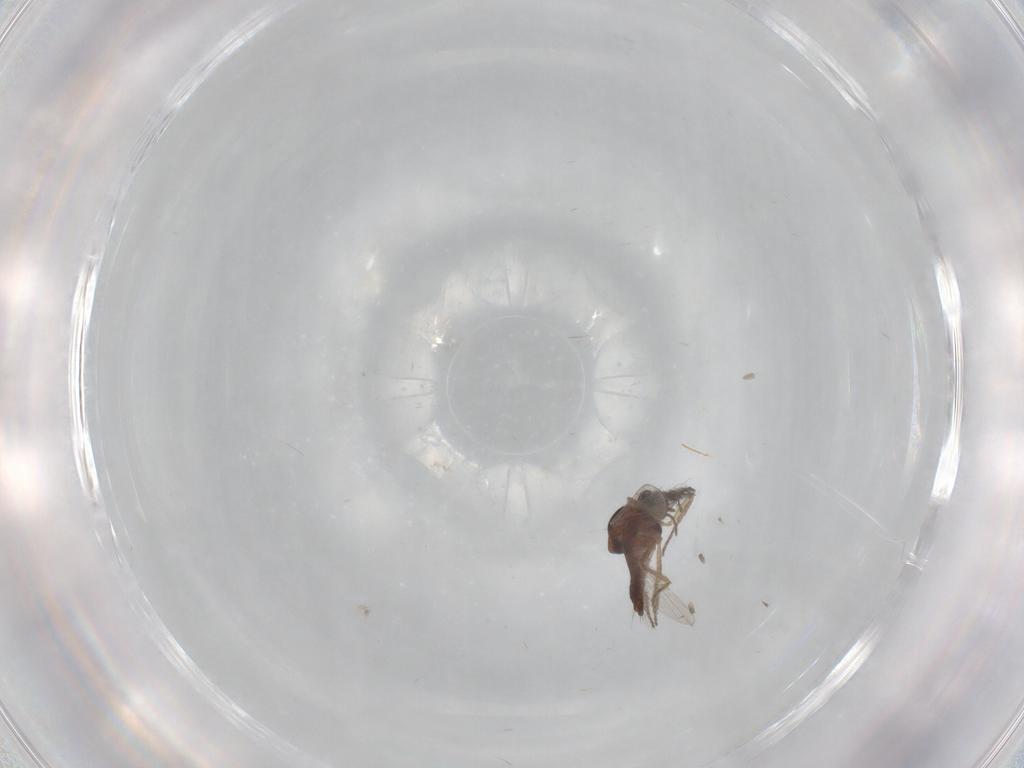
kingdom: Animalia
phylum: Arthropoda
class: Insecta
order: Diptera
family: Ceratopogonidae
